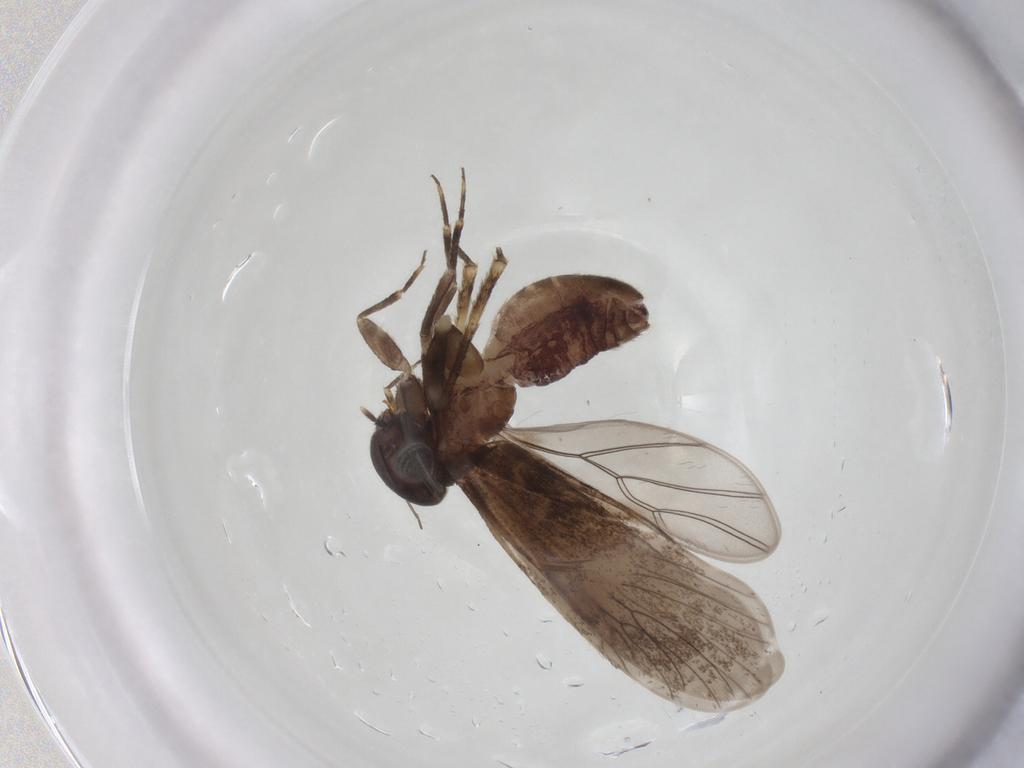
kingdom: Animalia
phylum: Arthropoda
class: Insecta
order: Psocodea
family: Amphientomidae
